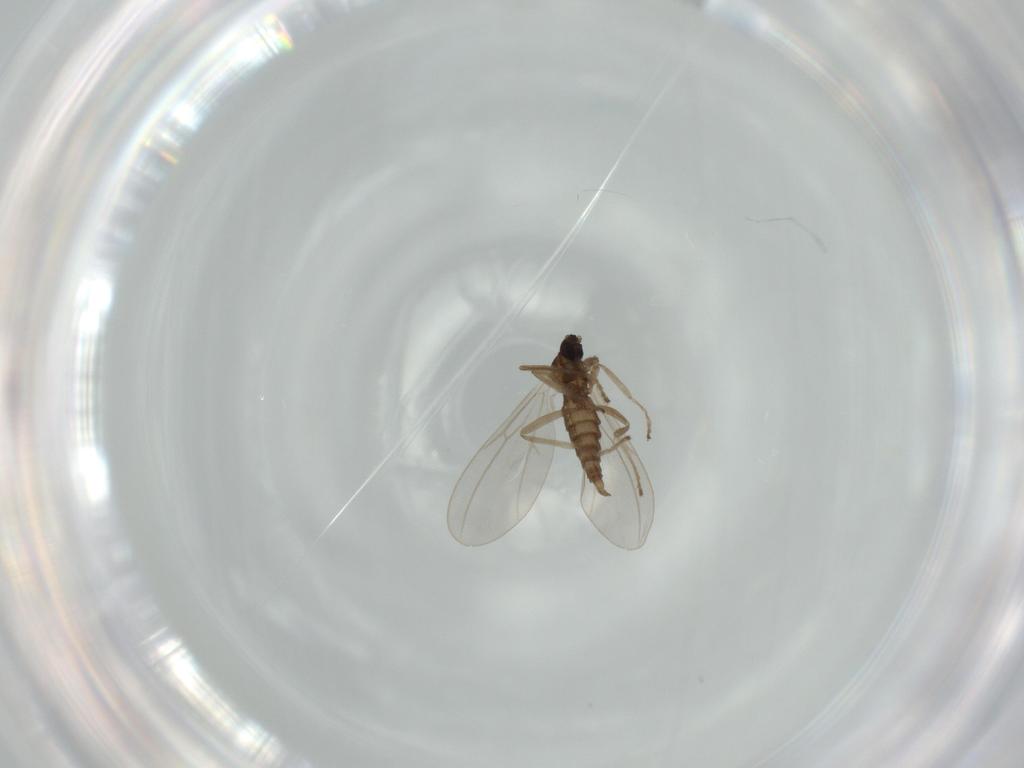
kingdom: Animalia
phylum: Arthropoda
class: Insecta
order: Diptera
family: Cecidomyiidae
